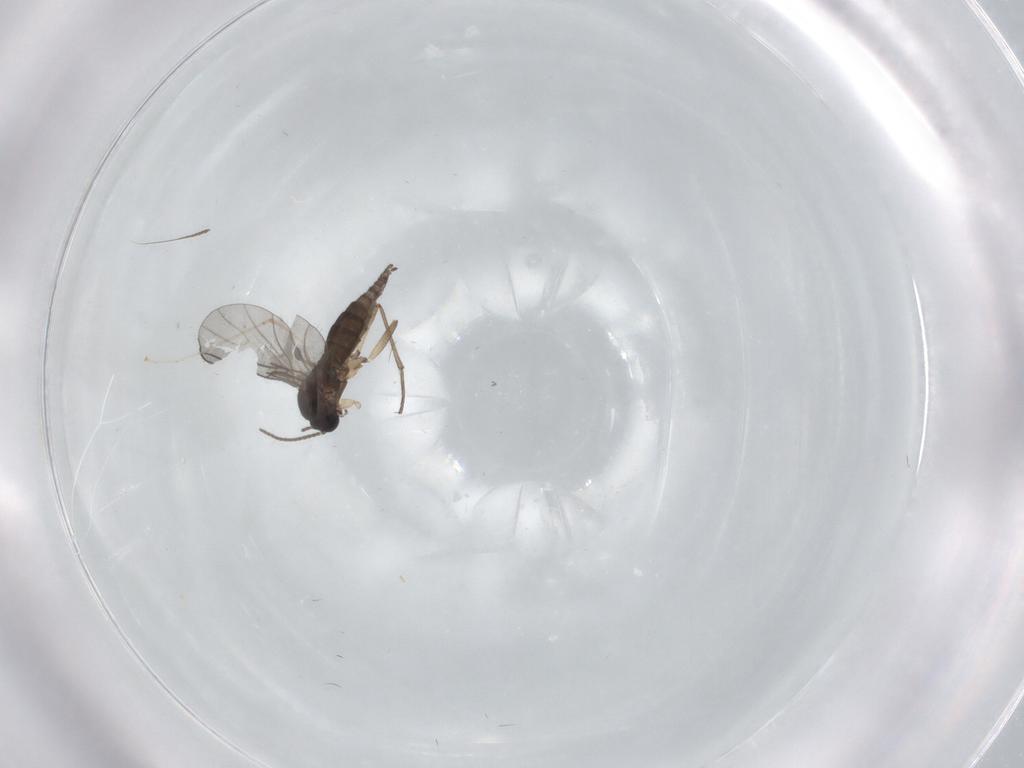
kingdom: Animalia
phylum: Arthropoda
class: Insecta
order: Diptera
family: Sciaridae
